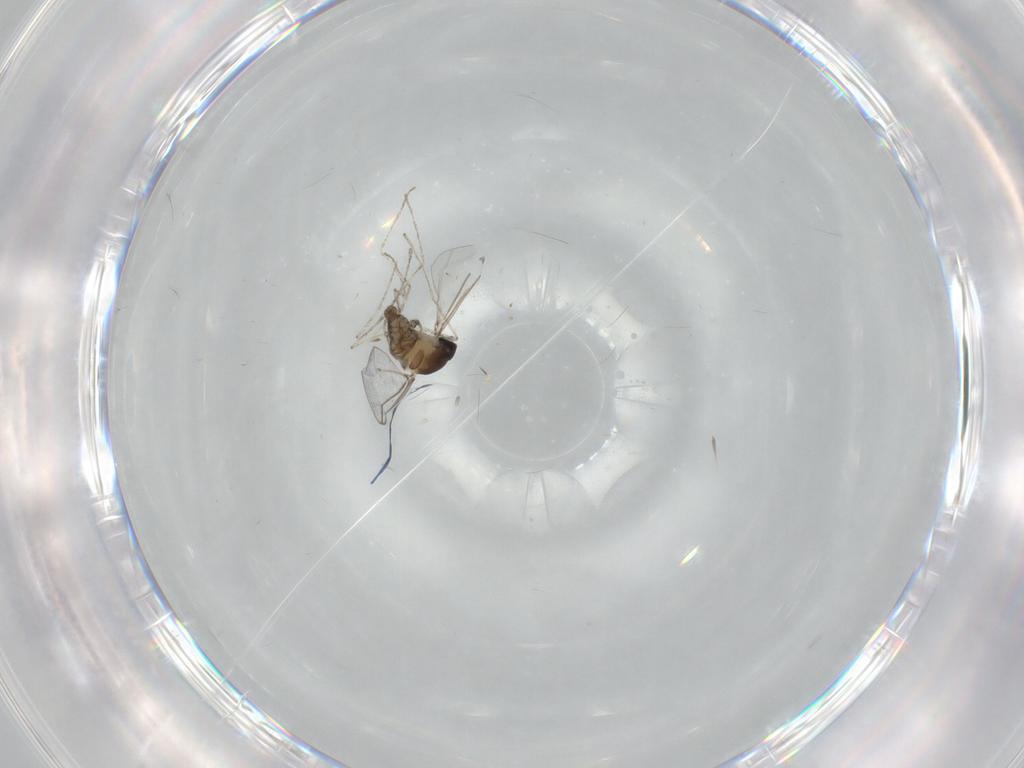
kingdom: Animalia
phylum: Arthropoda
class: Insecta
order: Diptera
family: Cecidomyiidae
